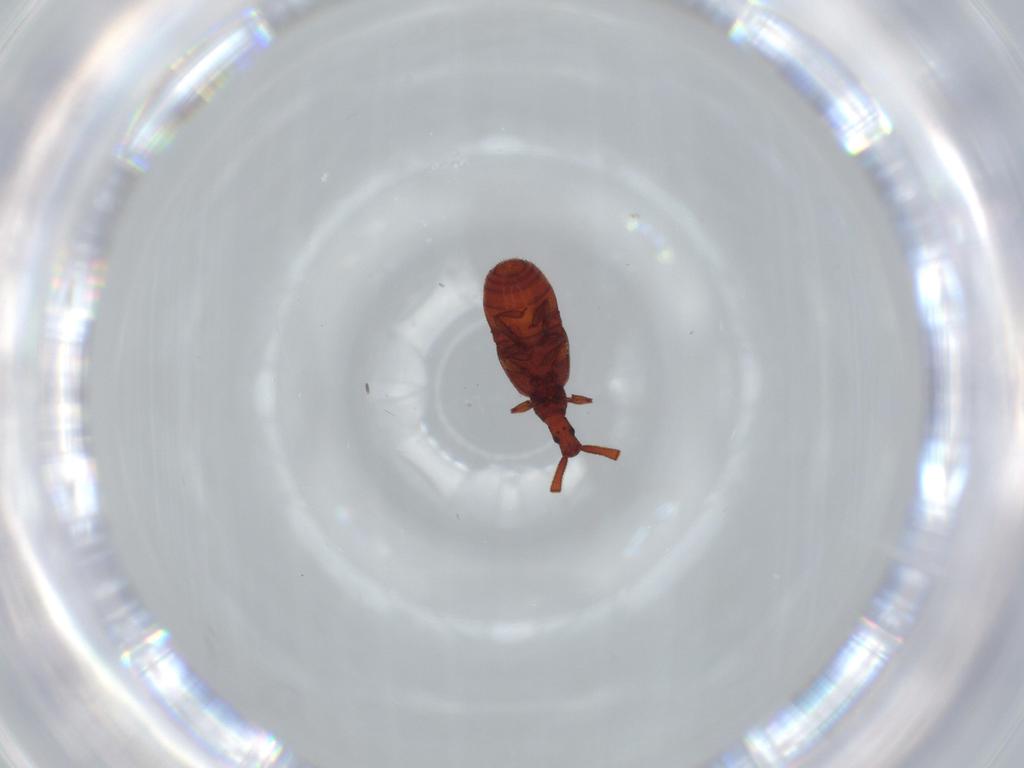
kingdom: Animalia
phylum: Arthropoda
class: Insecta
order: Coleoptera
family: Staphylinidae
